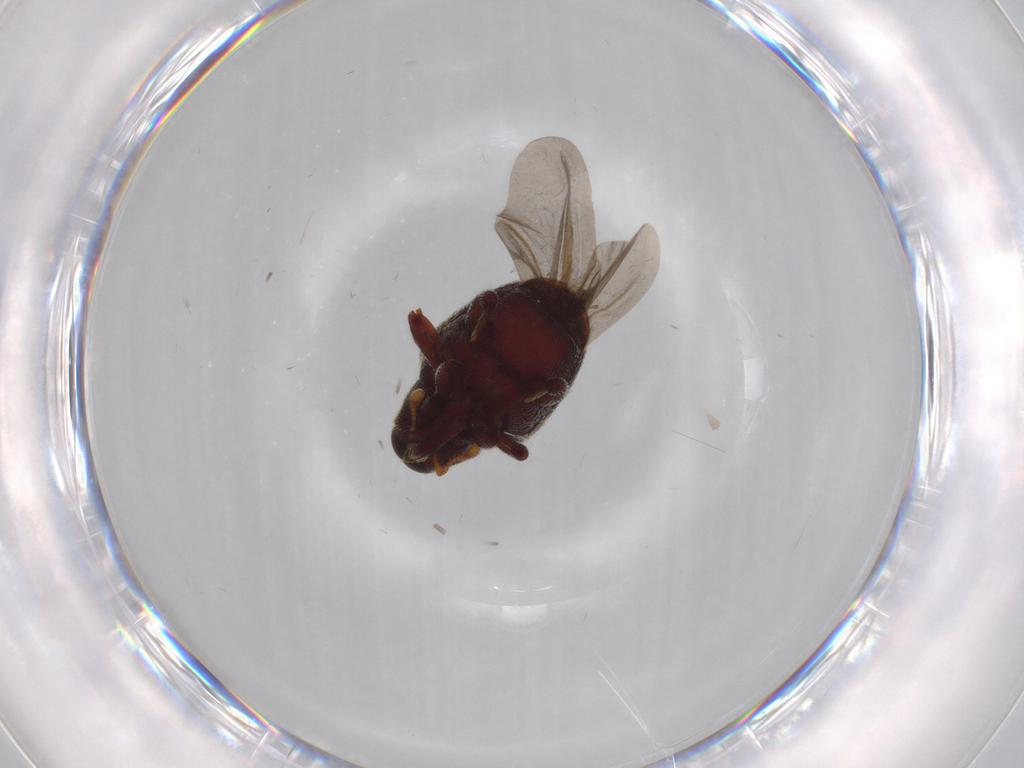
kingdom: Animalia
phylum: Arthropoda
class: Insecta
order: Coleoptera
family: Curculionidae
